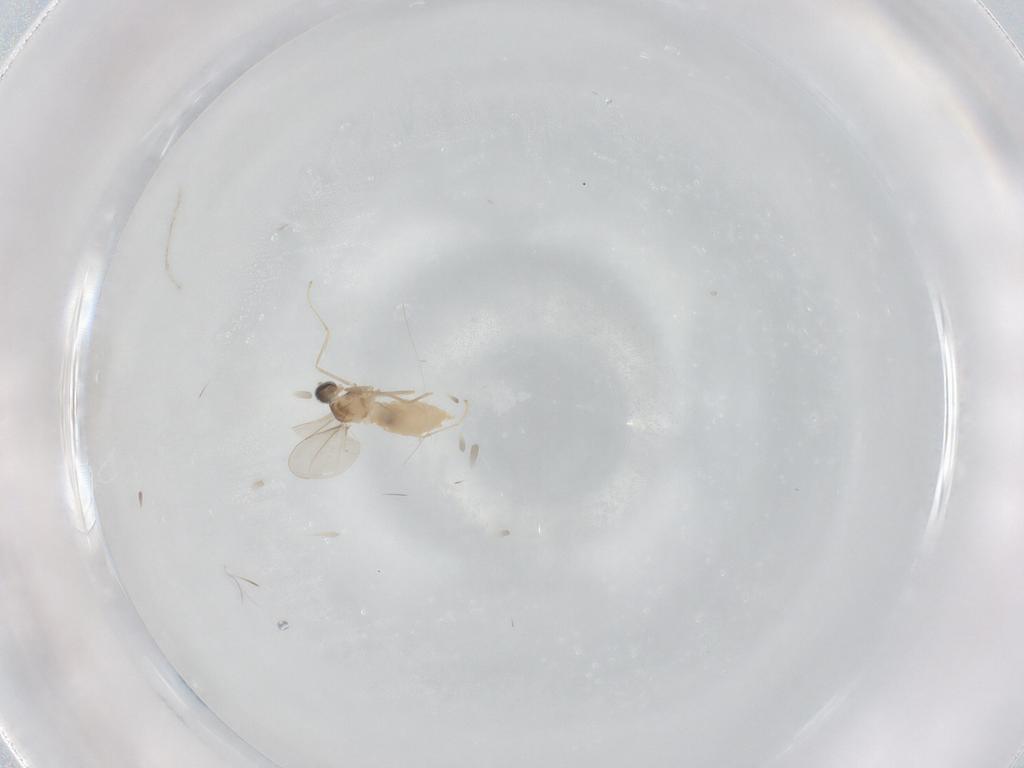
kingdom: Animalia
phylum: Arthropoda
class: Insecta
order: Diptera
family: Cecidomyiidae
